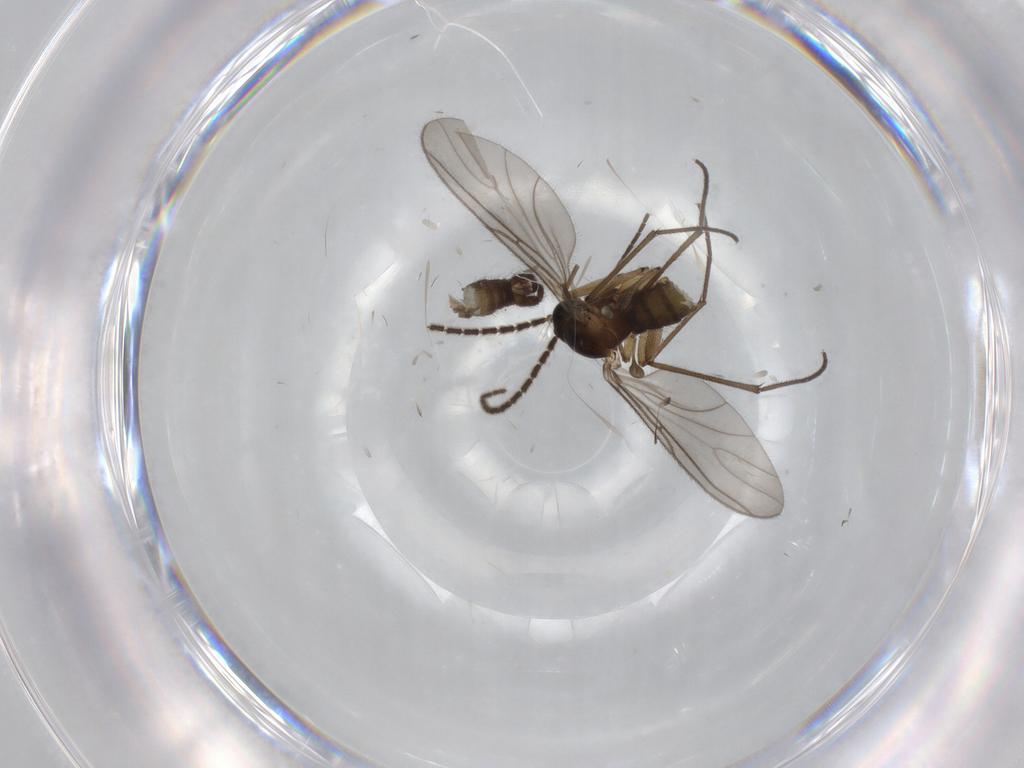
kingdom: Animalia
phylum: Arthropoda
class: Insecta
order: Diptera
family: Sciaridae
